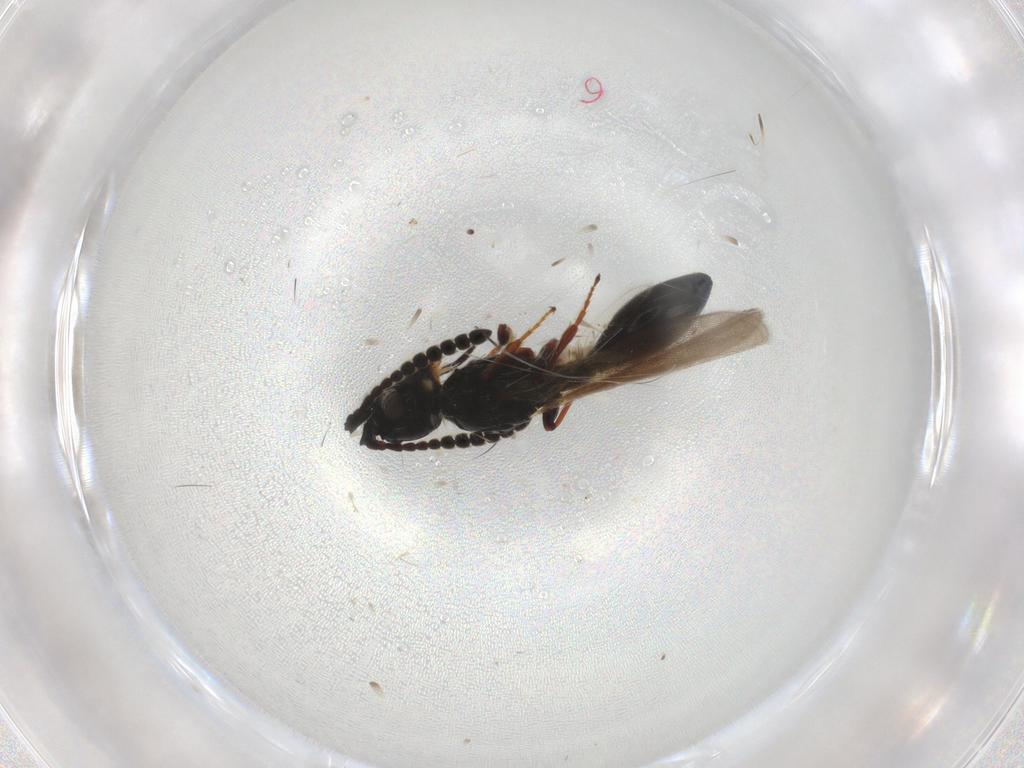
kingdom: Animalia
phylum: Arthropoda
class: Insecta
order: Hymenoptera
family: Diapriidae
